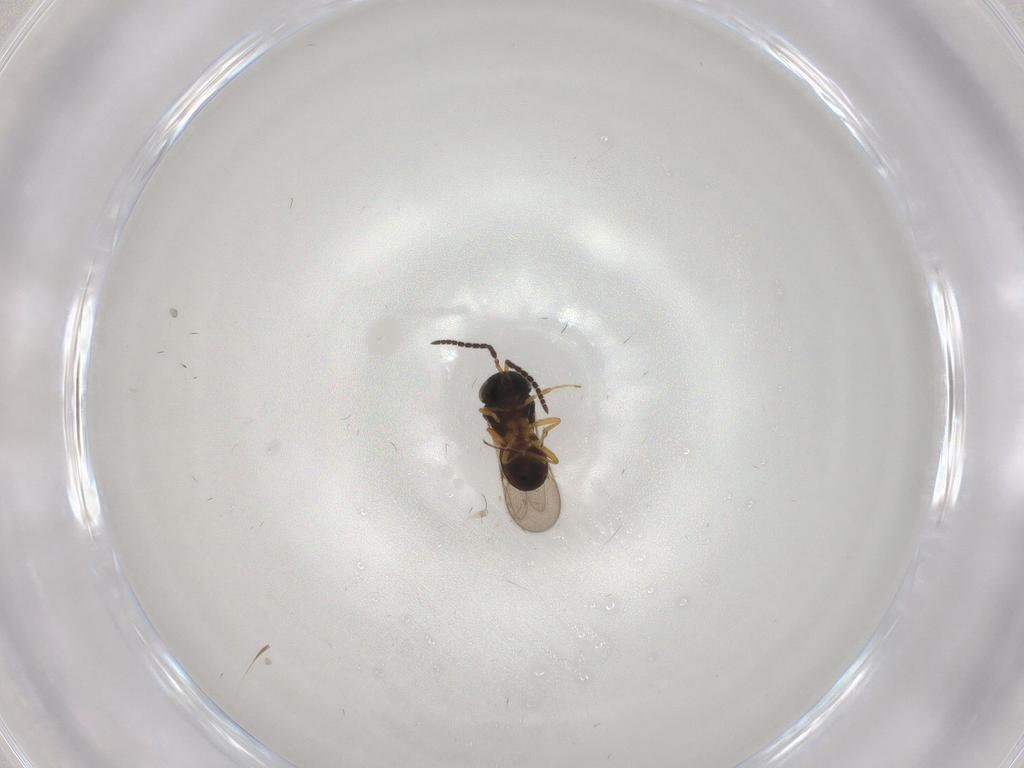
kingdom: Animalia
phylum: Arthropoda
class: Insecta
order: Hymenoptera
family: Scelionidae
